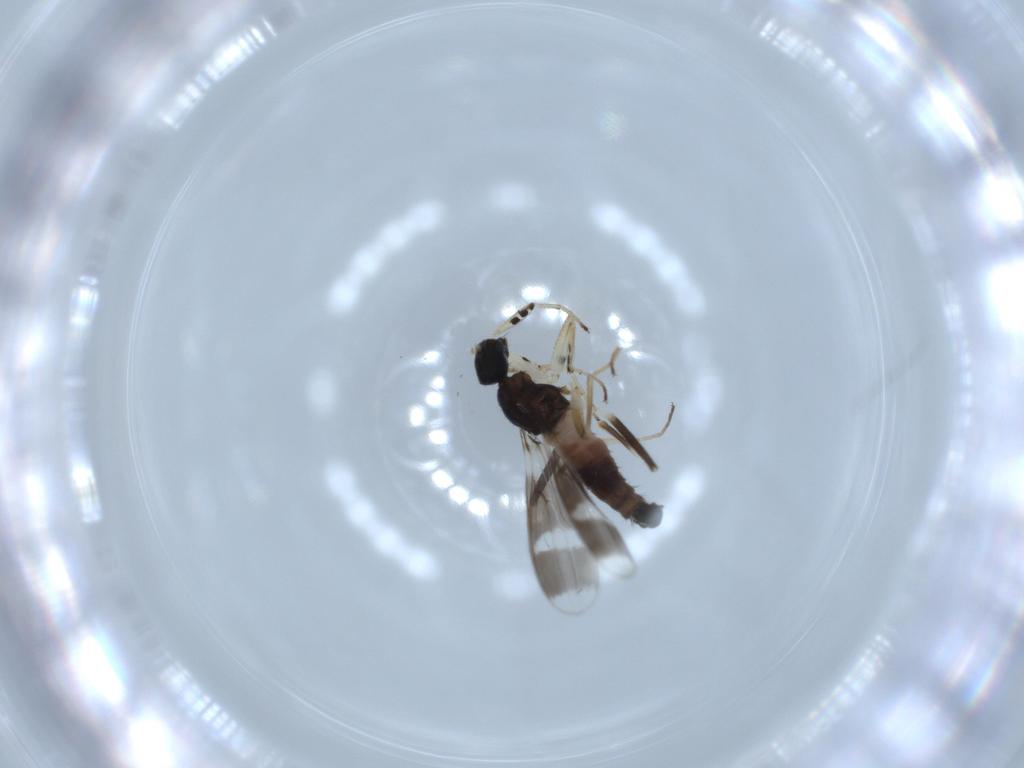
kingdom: Animalia
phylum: Arthropoda
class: Insecta
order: Diptera
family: Hybotidae
